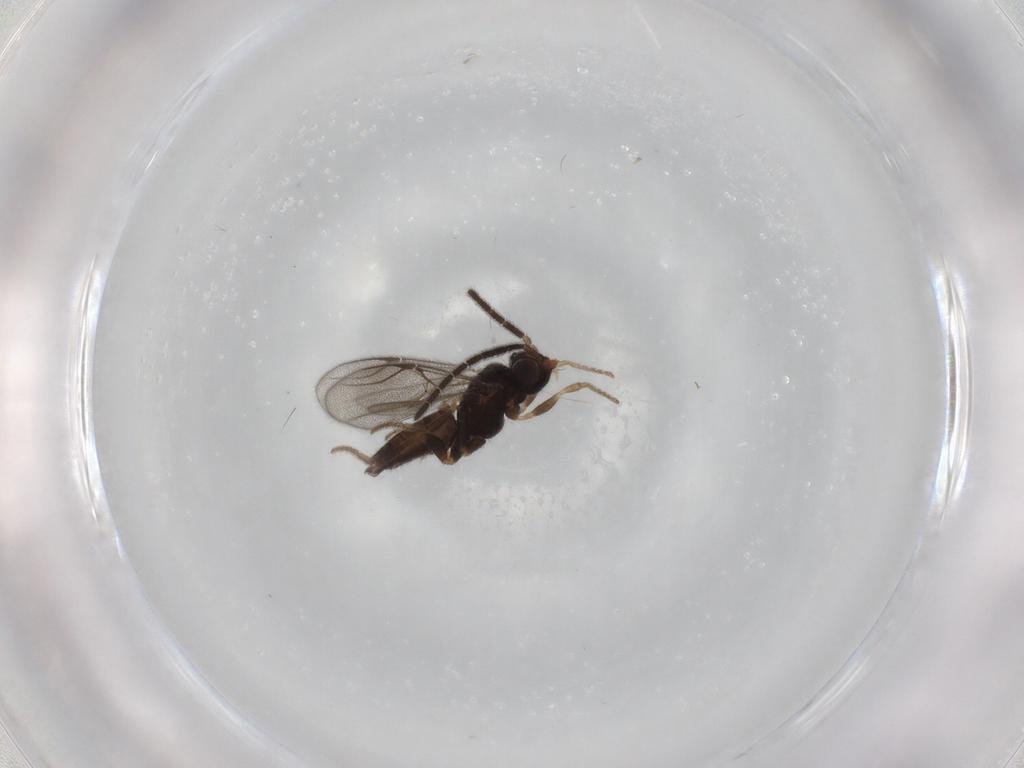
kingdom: Animalia
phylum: Arthropoda
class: Insecta
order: Hymenoptera
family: Dryinidae
